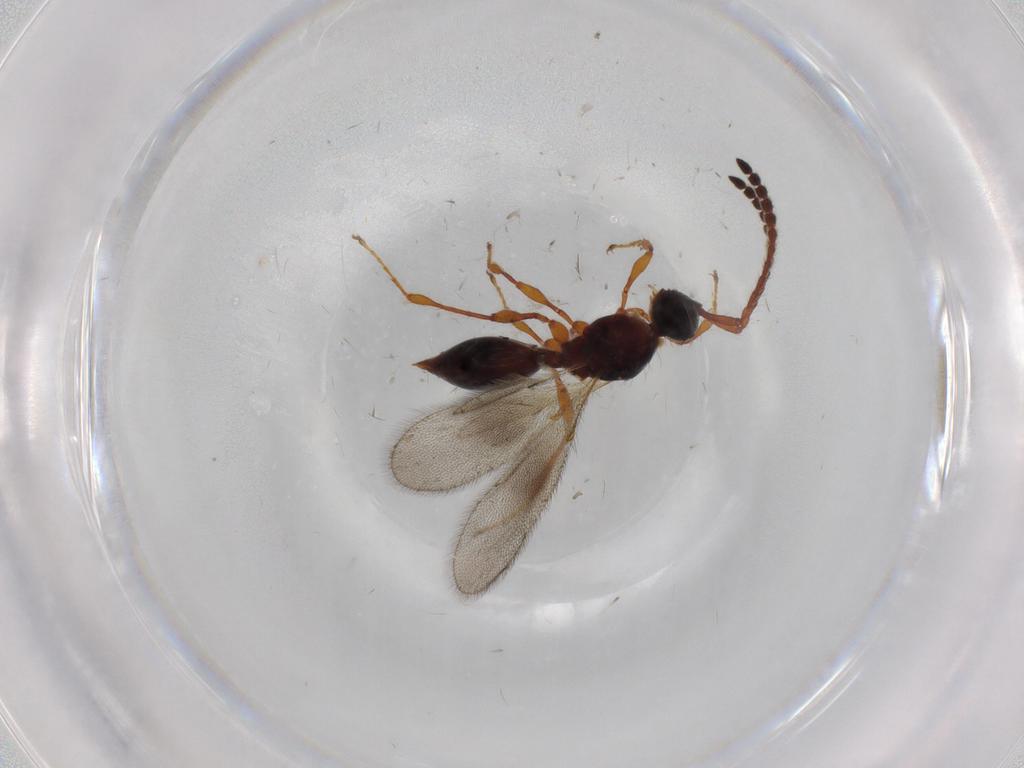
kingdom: Animalia
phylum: Arthropoda
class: Insecta
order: Hymenoptera
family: Diapriidae
